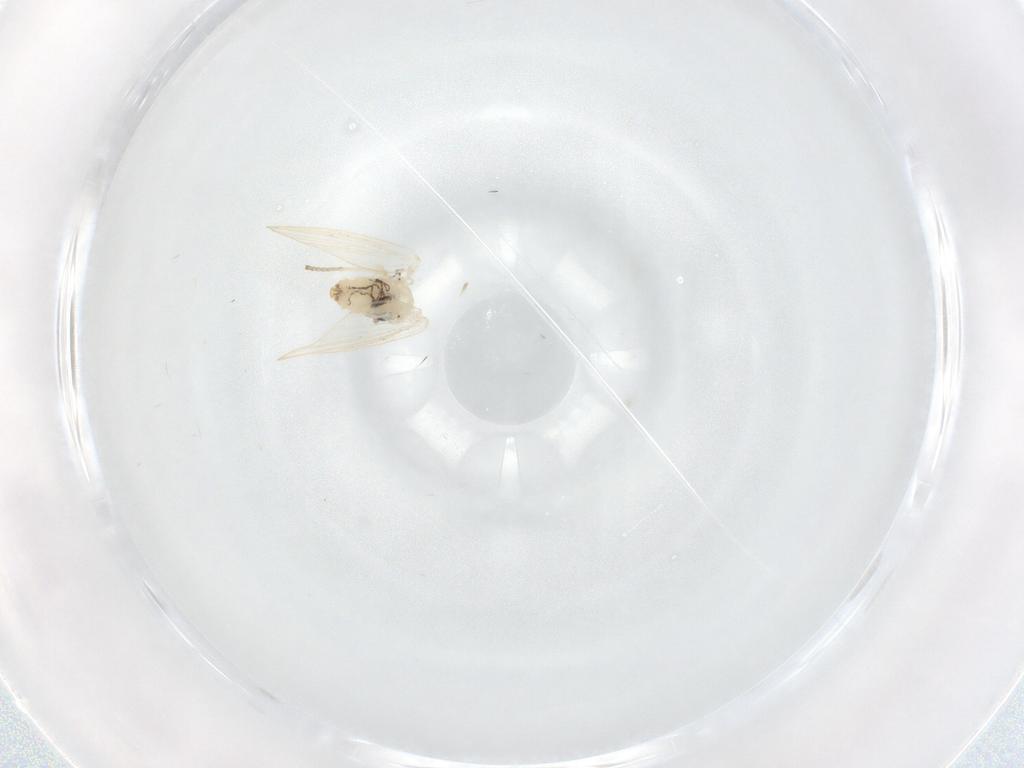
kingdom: Animalia
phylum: Arthropoda
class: Insecta
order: Diptera
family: Psychodidae
